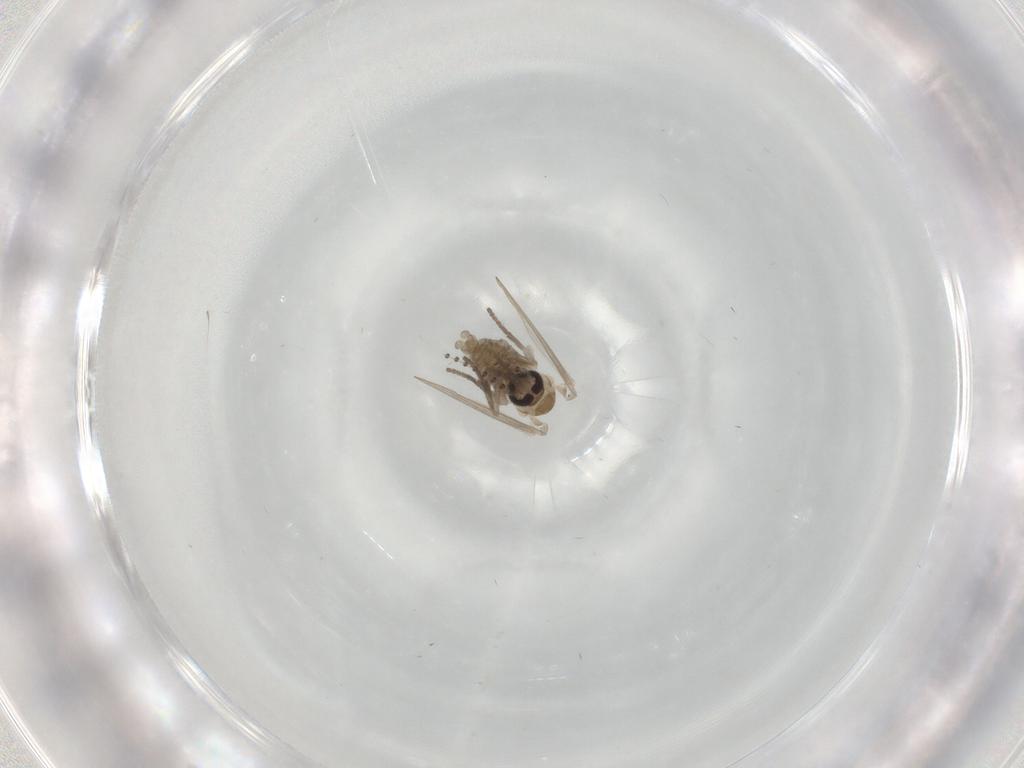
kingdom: Animalia
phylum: Arthropoda
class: Insecta
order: Diptera
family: Psychodidae
